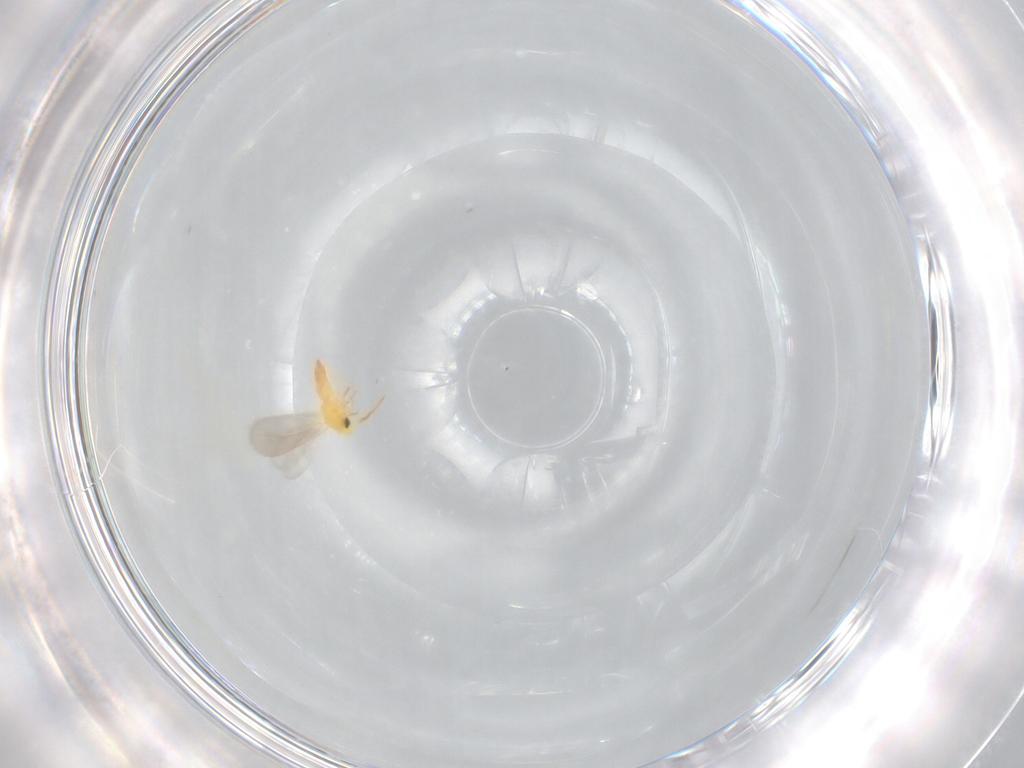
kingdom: Animalia
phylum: Arthropoda
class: Insecta
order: Hemiptera
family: Aleyrodidae
